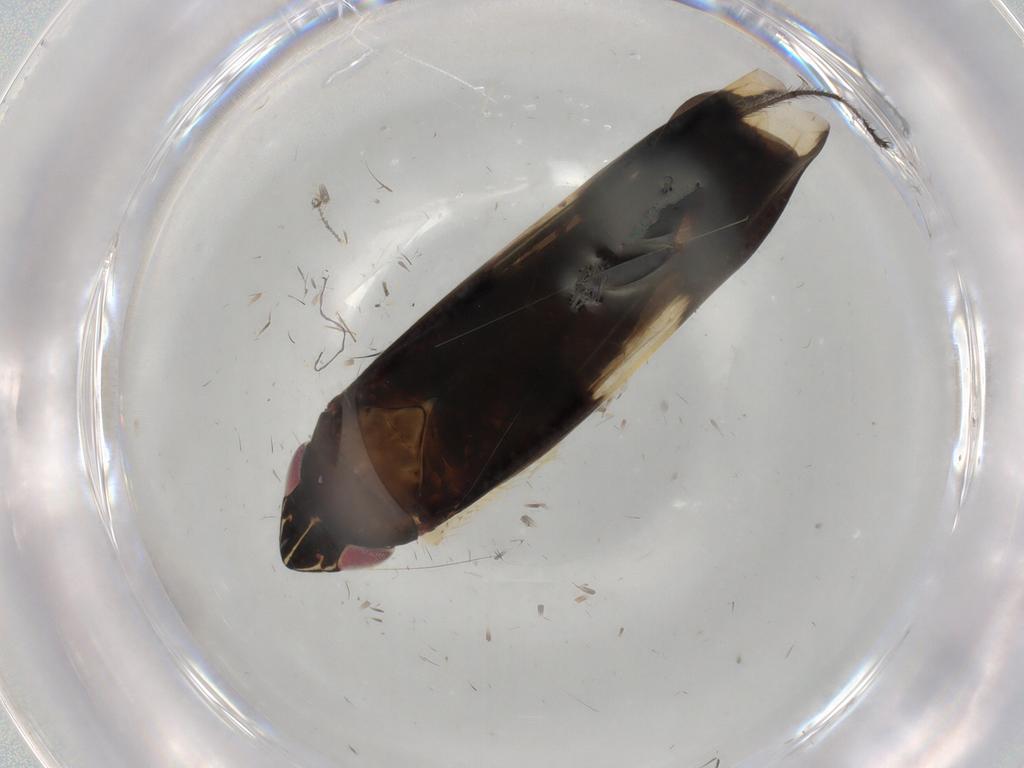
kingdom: Animalia
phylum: Arthropoda
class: Insecta
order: Hemiptera
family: Cicadellidae
